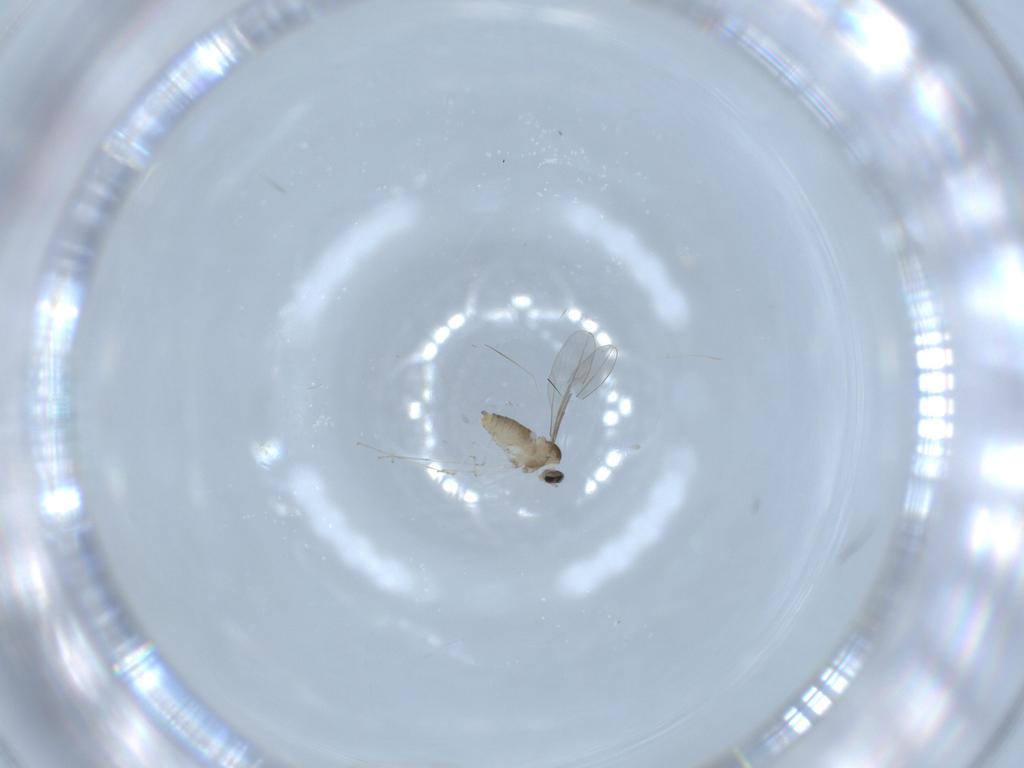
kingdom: Animalia
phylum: Arthropoda
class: Insecta
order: Diptera
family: Cecidomyiidae
